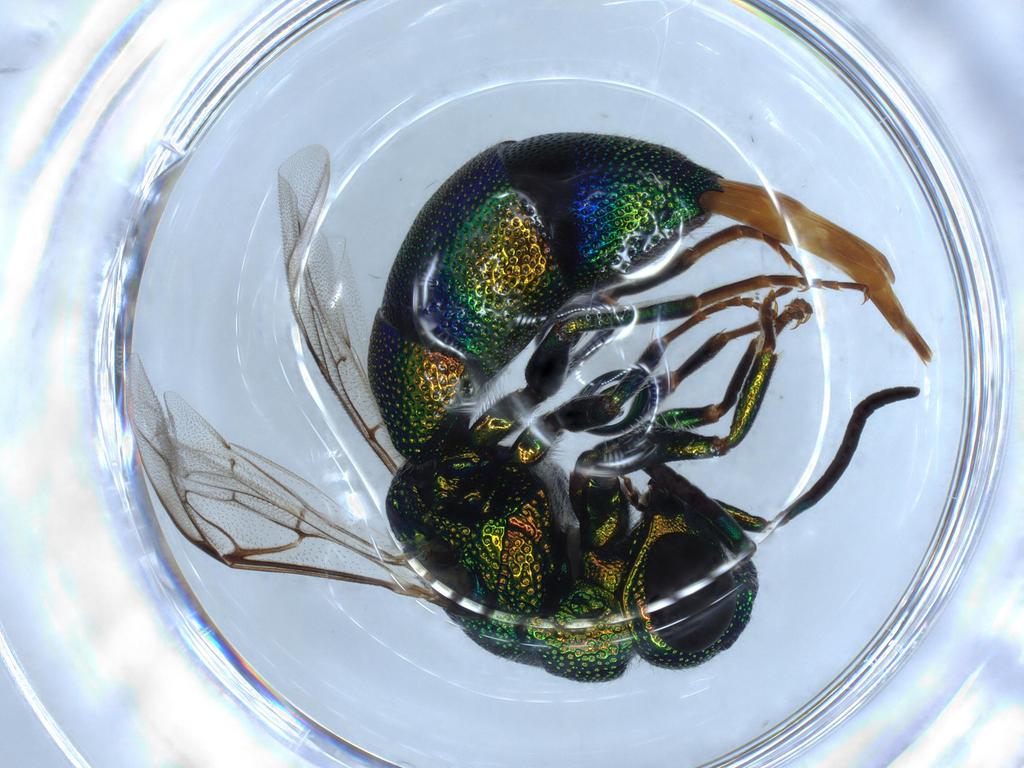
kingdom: Animalia
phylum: Arthropoda
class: Insecta
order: Hymenoptera
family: Chrysididae
